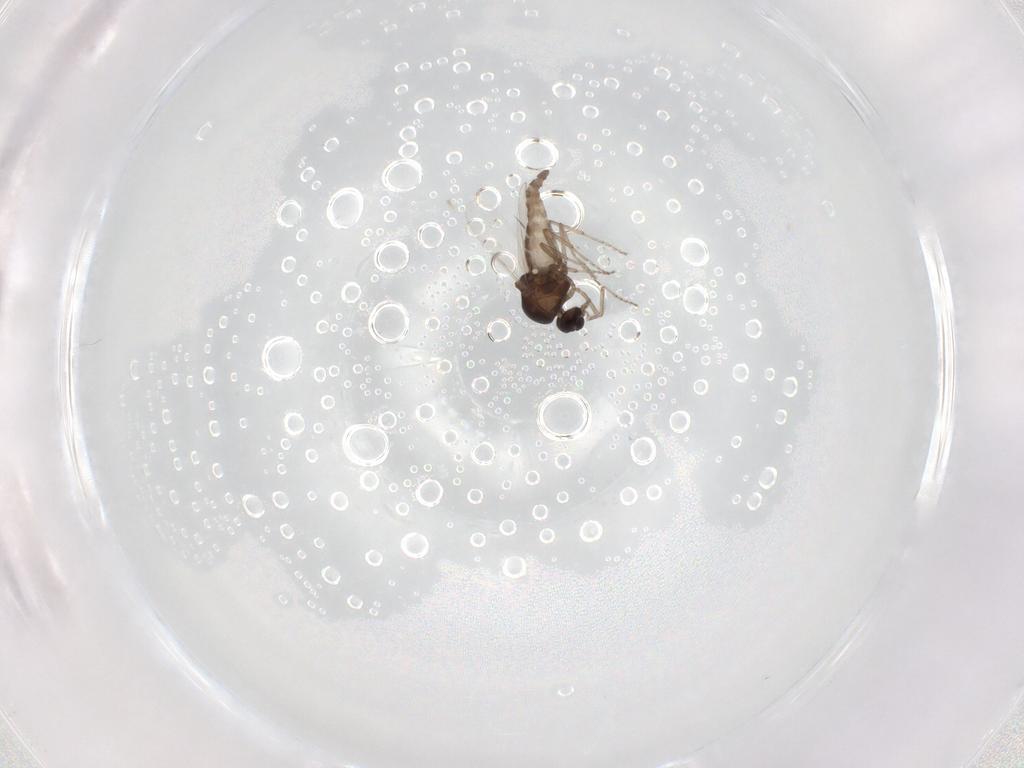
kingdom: Animalia
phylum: Arthropoda
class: Insecta
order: Diptera
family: Ceratopogonidae
